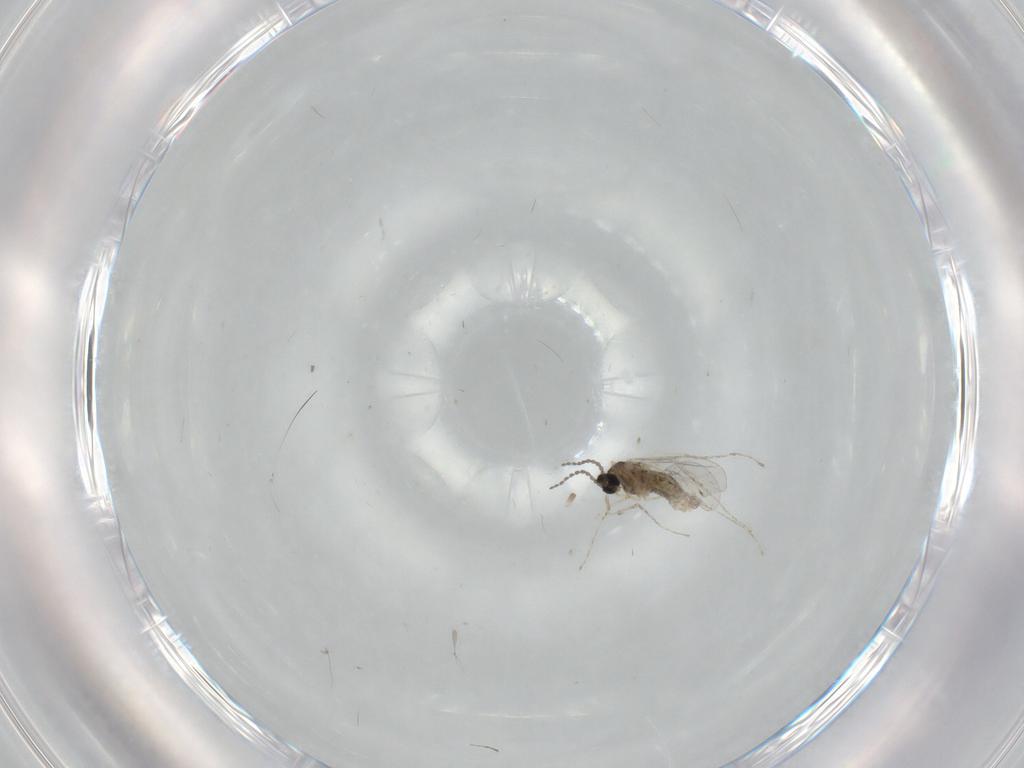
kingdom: Animalia
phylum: Arthropoda
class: Insecta
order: Diptera
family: Cecidomyiidae
